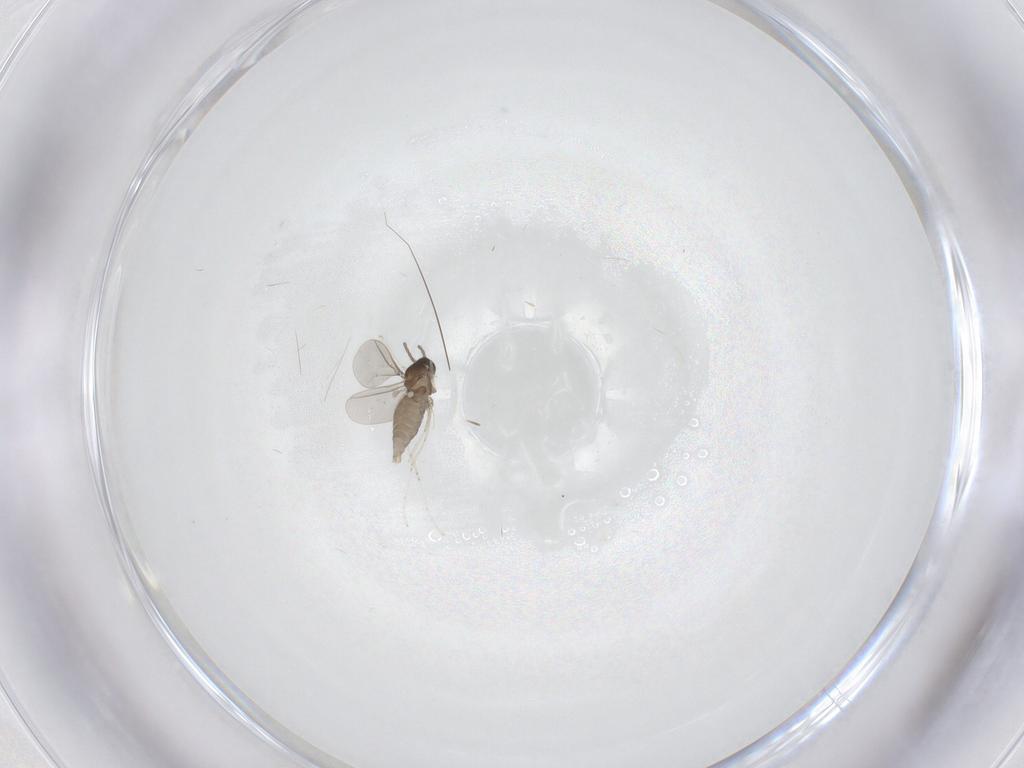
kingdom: Animalia
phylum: Arthropoda
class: Insecta
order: Diptera
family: Cecidomyiidae
